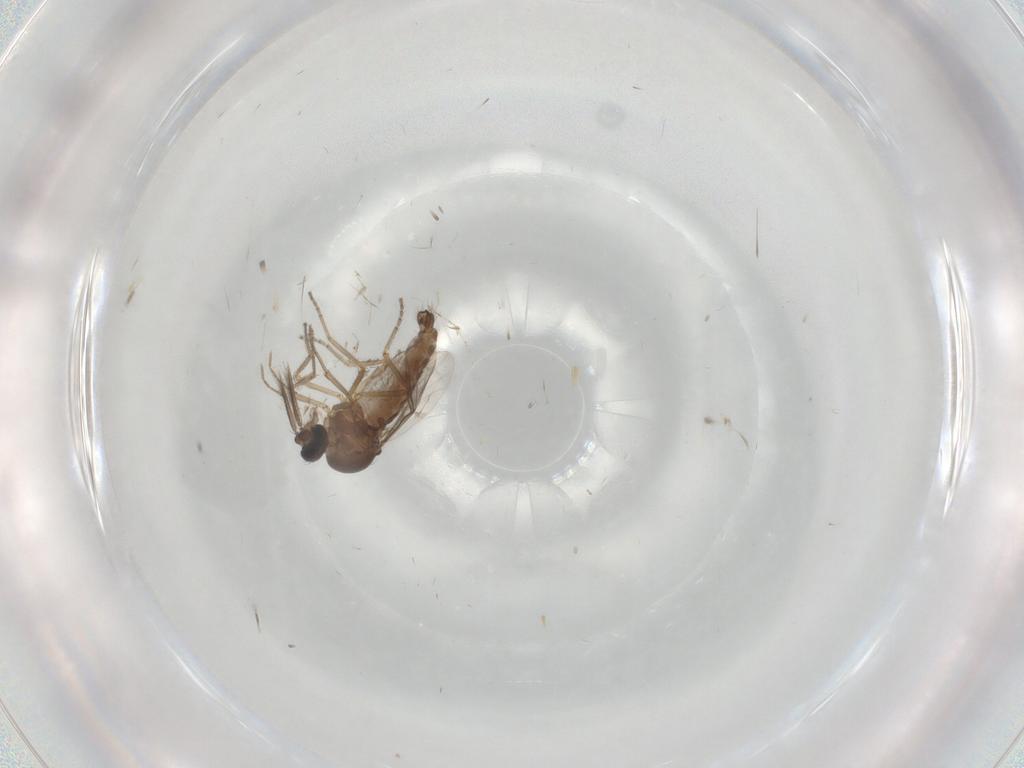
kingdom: Animalia
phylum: Arthropoda
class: Insecta
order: Diptera
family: Ceratopogonidae
